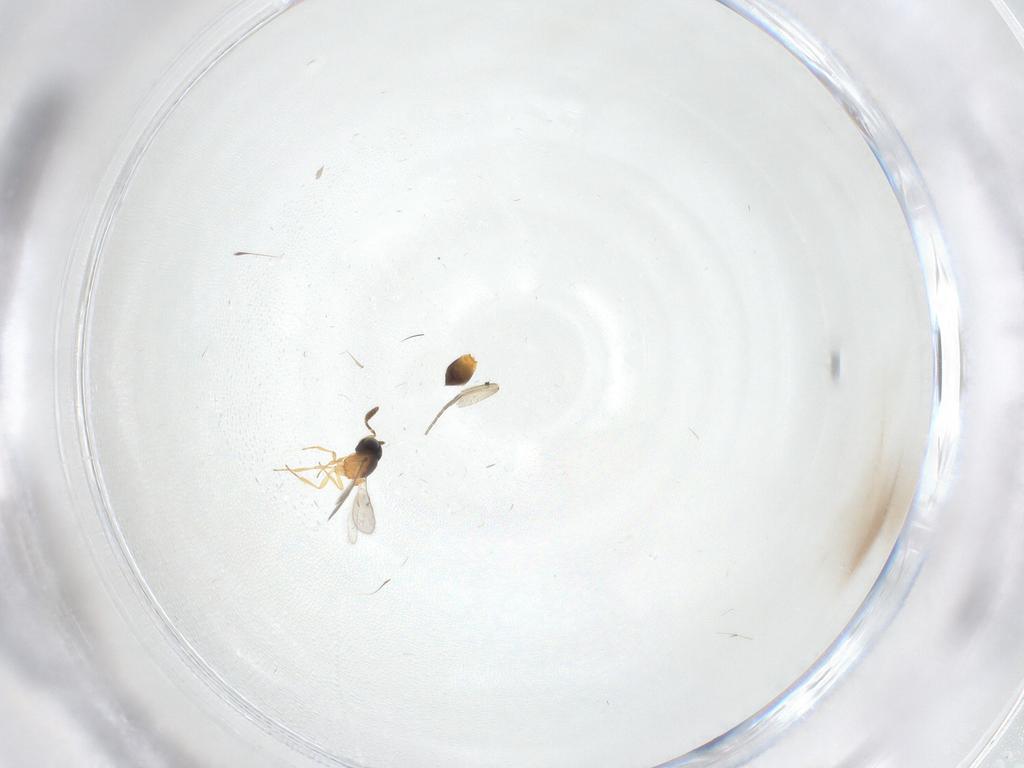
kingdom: Animalia
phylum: Arthropoda
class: Insecta
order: Hymenoptera
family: Scelionidae
